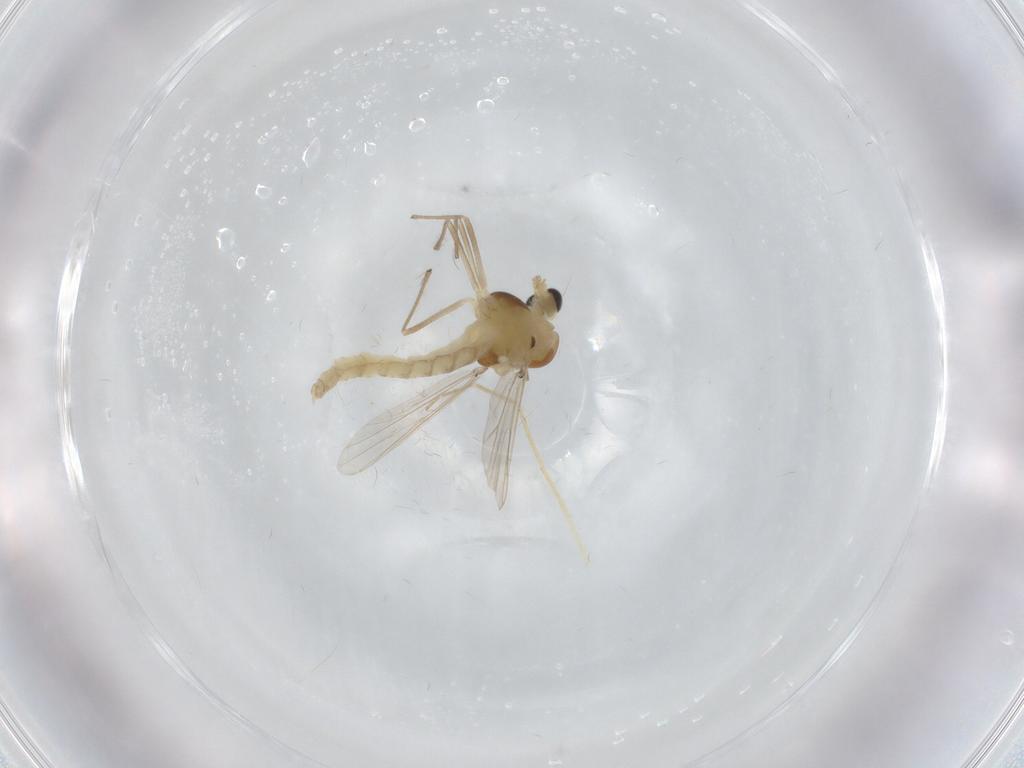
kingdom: Animalia
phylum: Arthropoda
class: Insecta
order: Diptera
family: Chironomidae
